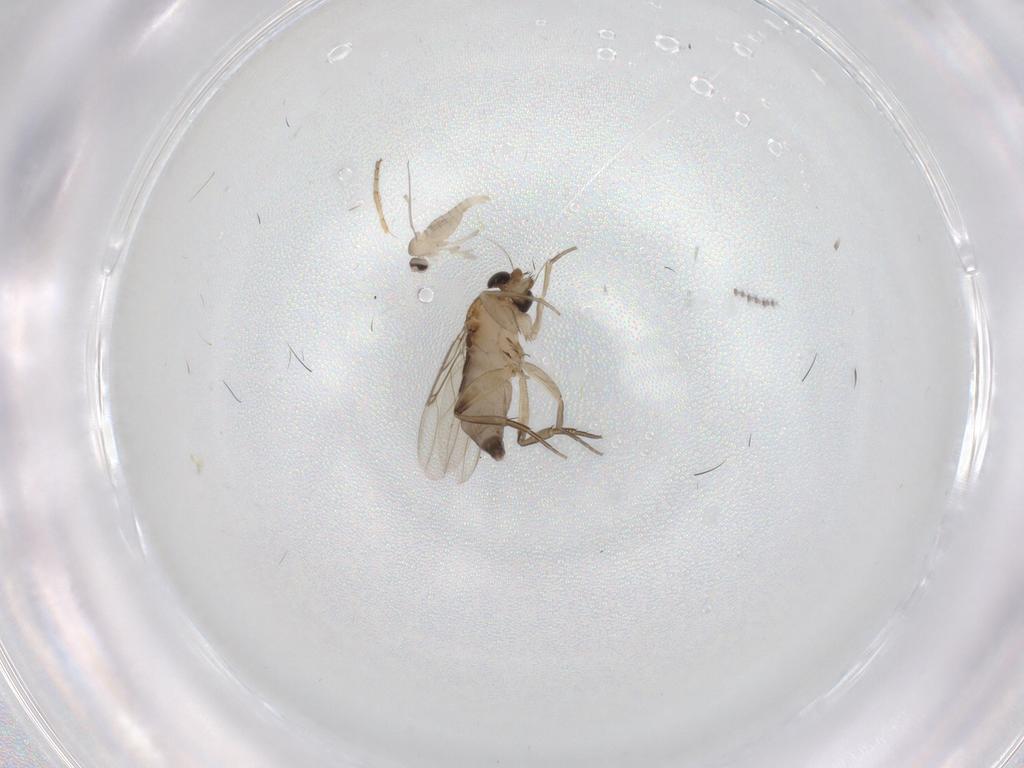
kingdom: Animalia
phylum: Arthropoda
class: Insecta
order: Diptera
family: Phoridae
